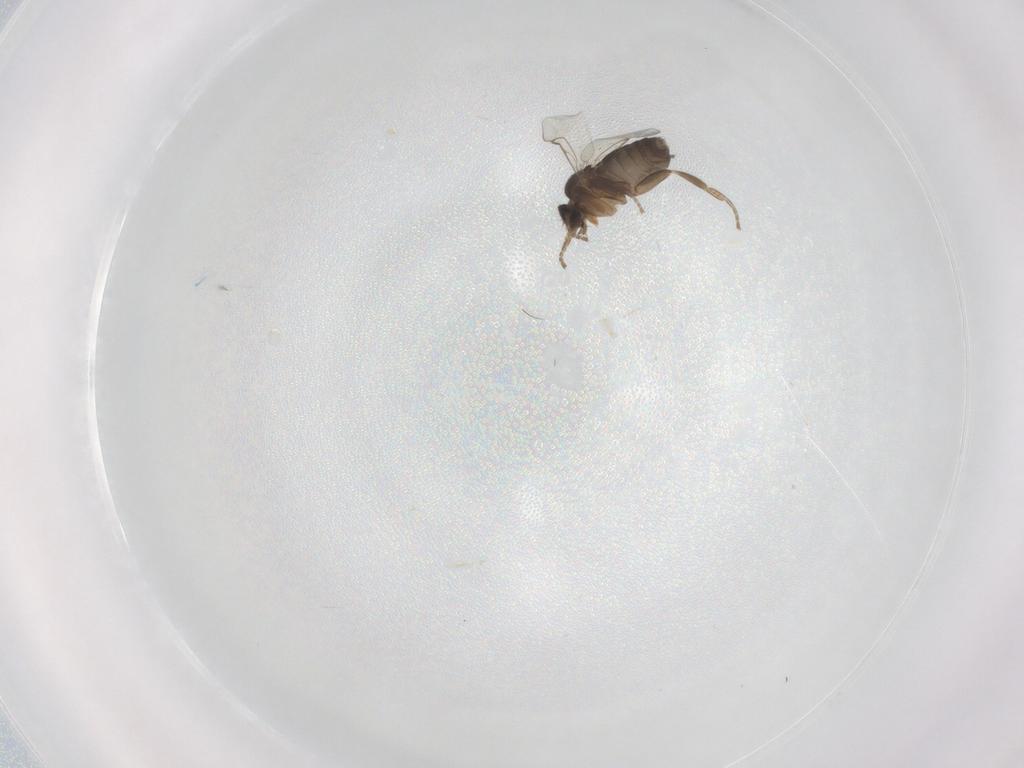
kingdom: Animalia
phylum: Arthropoda
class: Insecta
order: Diptera
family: Phoridae
